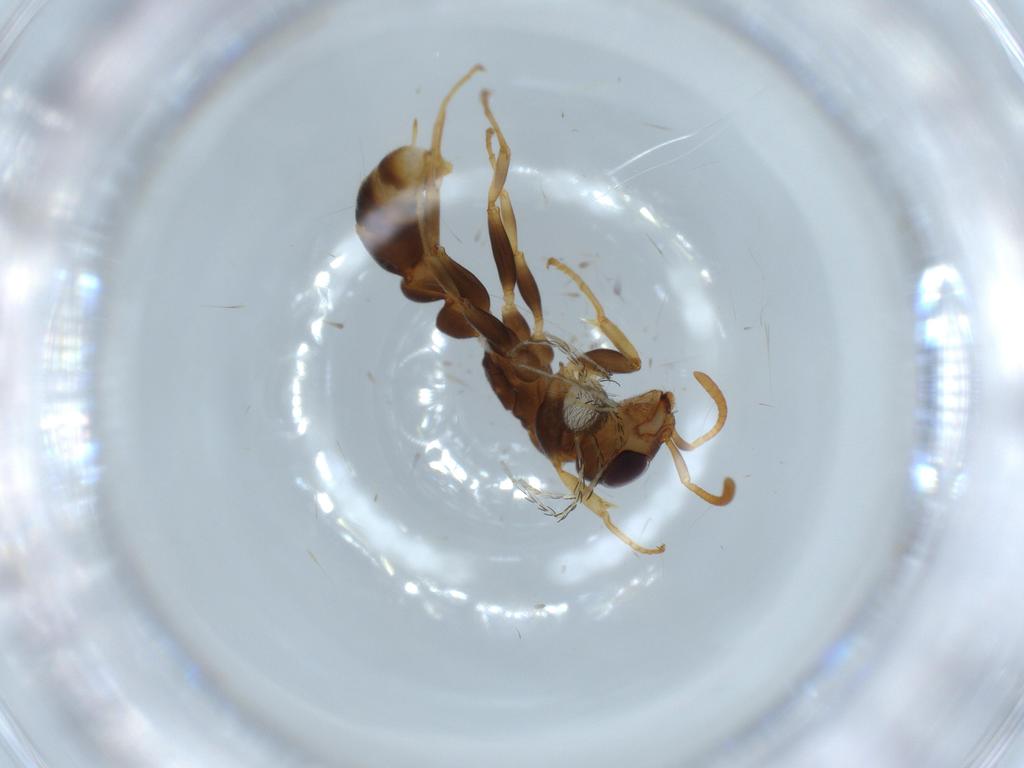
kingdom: Animalia
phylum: Arthropoda
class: Insecta
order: Hymenoptera
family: Formicidae
